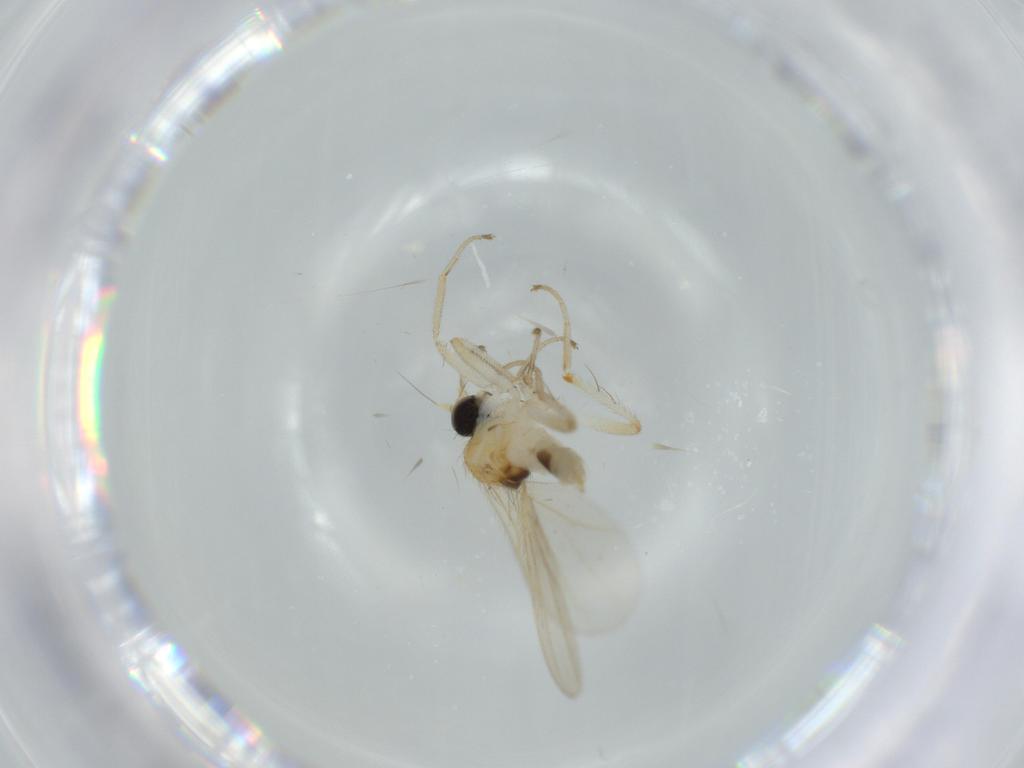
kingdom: Animalia
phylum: Arthropoda
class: Insecta
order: Diptera
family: Hybotidae
